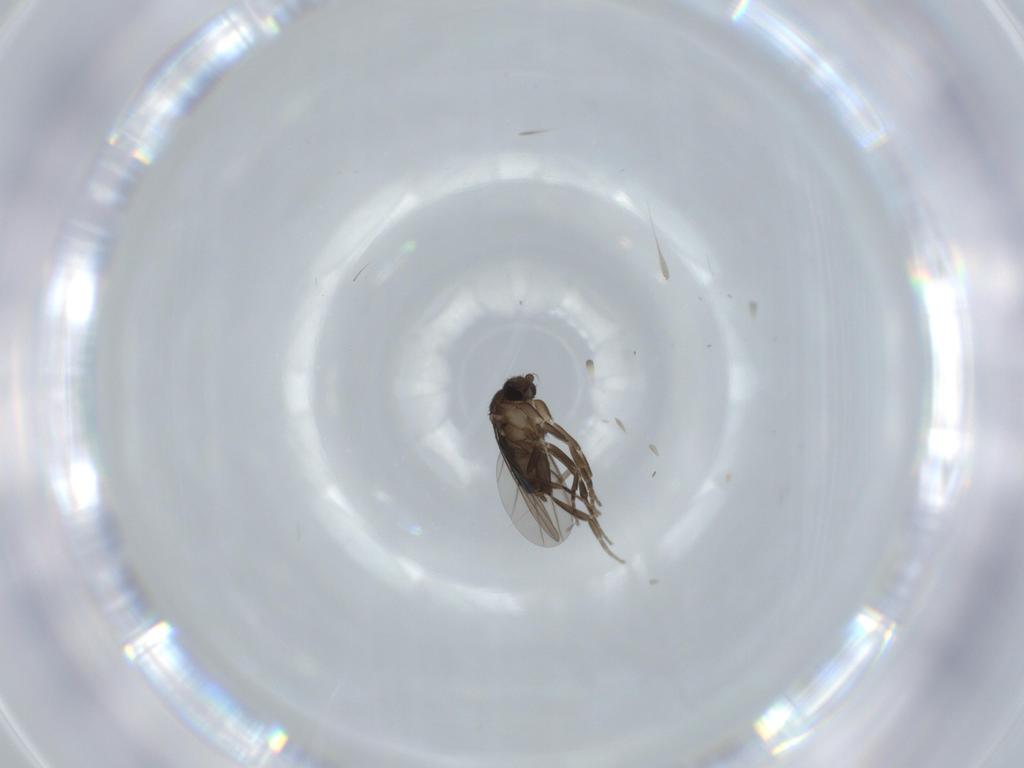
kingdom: Animalia
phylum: Arthropoda
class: Insecta
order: Diptera
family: Phoridae
